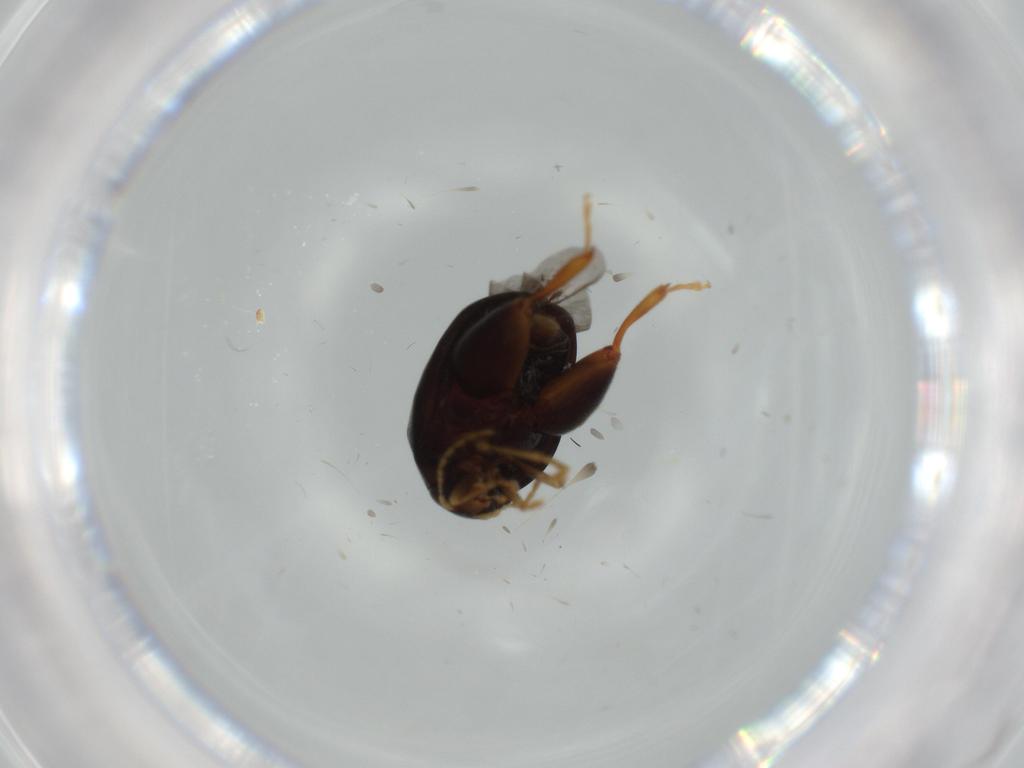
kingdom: Animalia
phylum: Arthropoda
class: Insecta
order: Coleoptera
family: Chrysomelidae
